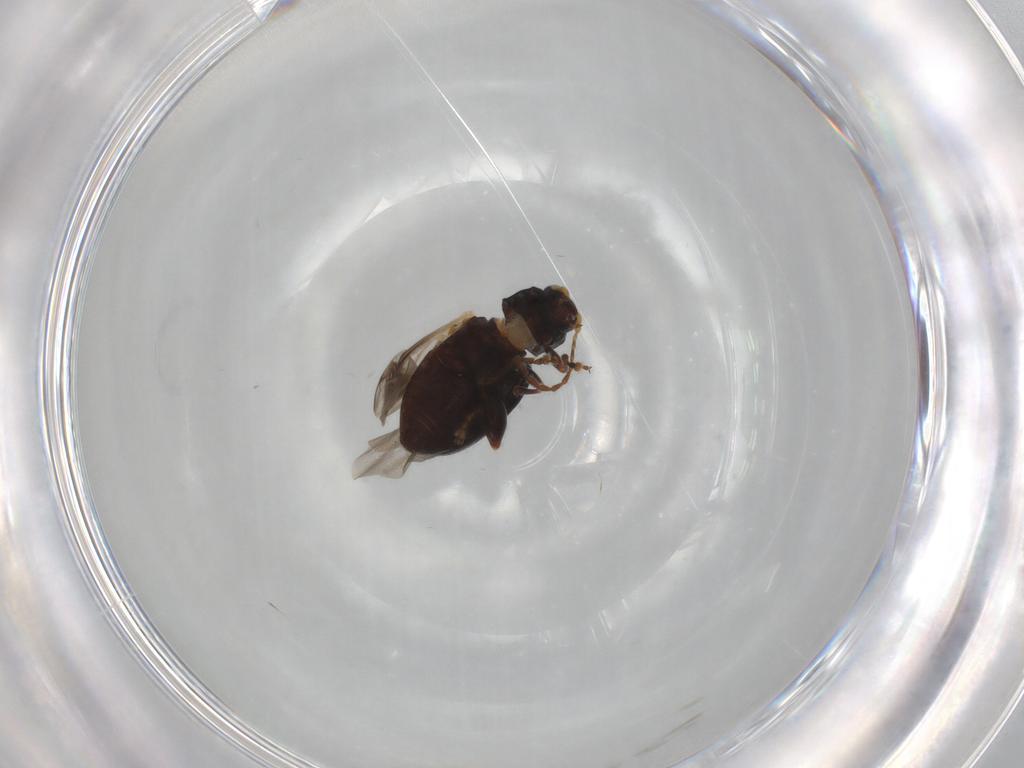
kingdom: Animalia
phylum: Arthropoda
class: Insecta
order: Coleoptera
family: Chrysomelidae
